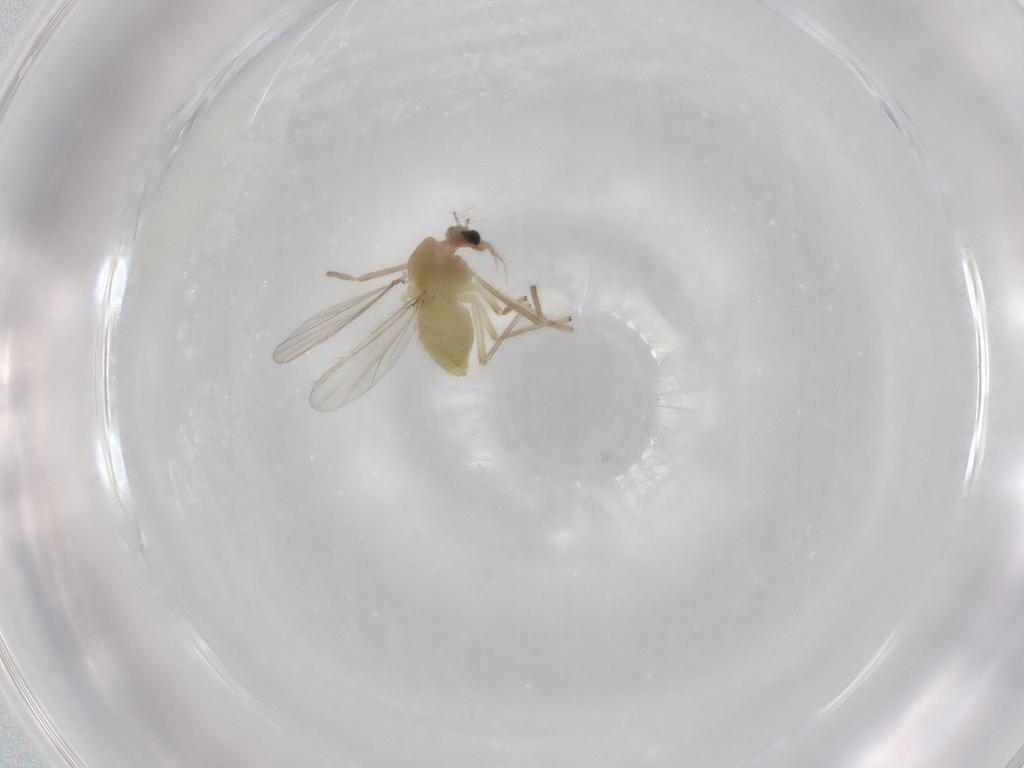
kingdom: Animalia
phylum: Arthropoda
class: Insecta
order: Diptera
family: Chironomidae
